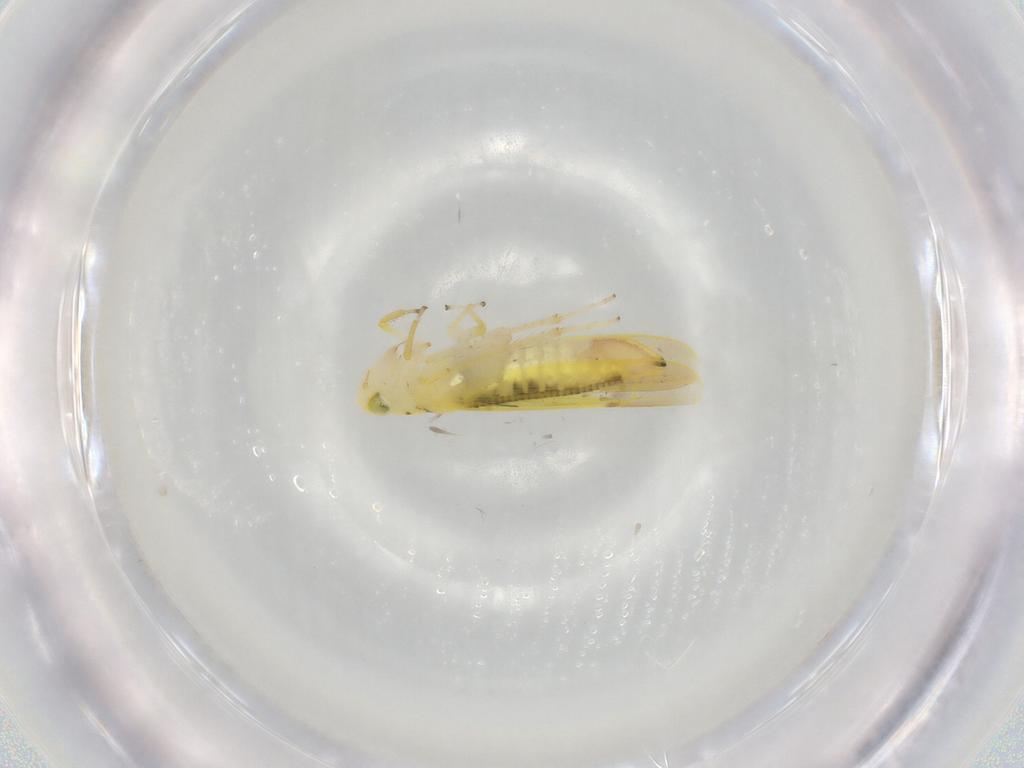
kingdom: Animalia
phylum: Arthropoda
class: Insecta
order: Hemiptera
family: Cicadellidae
